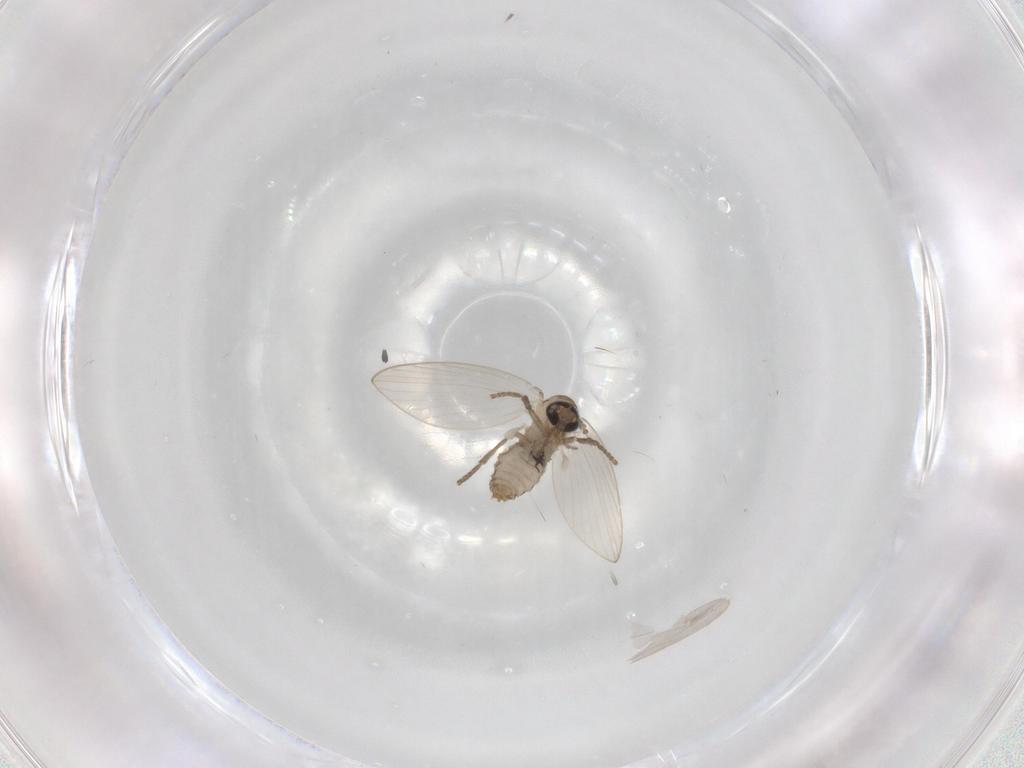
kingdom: Animalia
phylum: Arthropoda
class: Insecta
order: Diptera
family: Psychodidae
